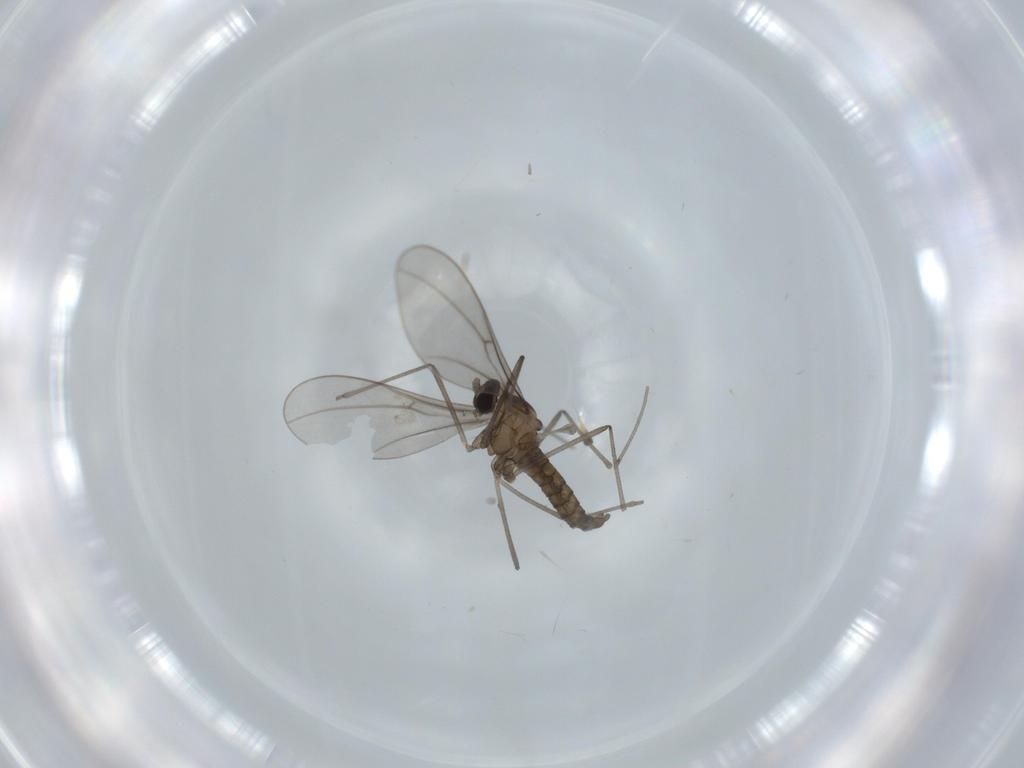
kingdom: Animalia
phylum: Arthropoda
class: Insecta
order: Diptera
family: Cecidomyiidae
